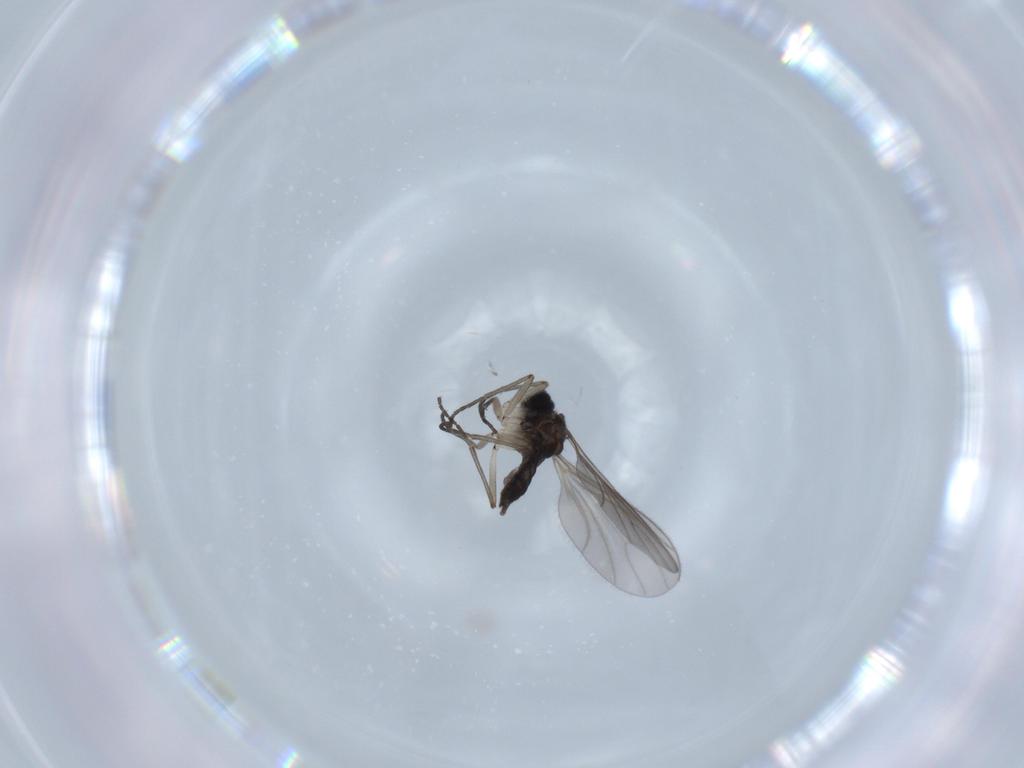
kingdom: Animalia
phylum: Arthropoda
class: Insecta
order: Diptera
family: Sciaridae
